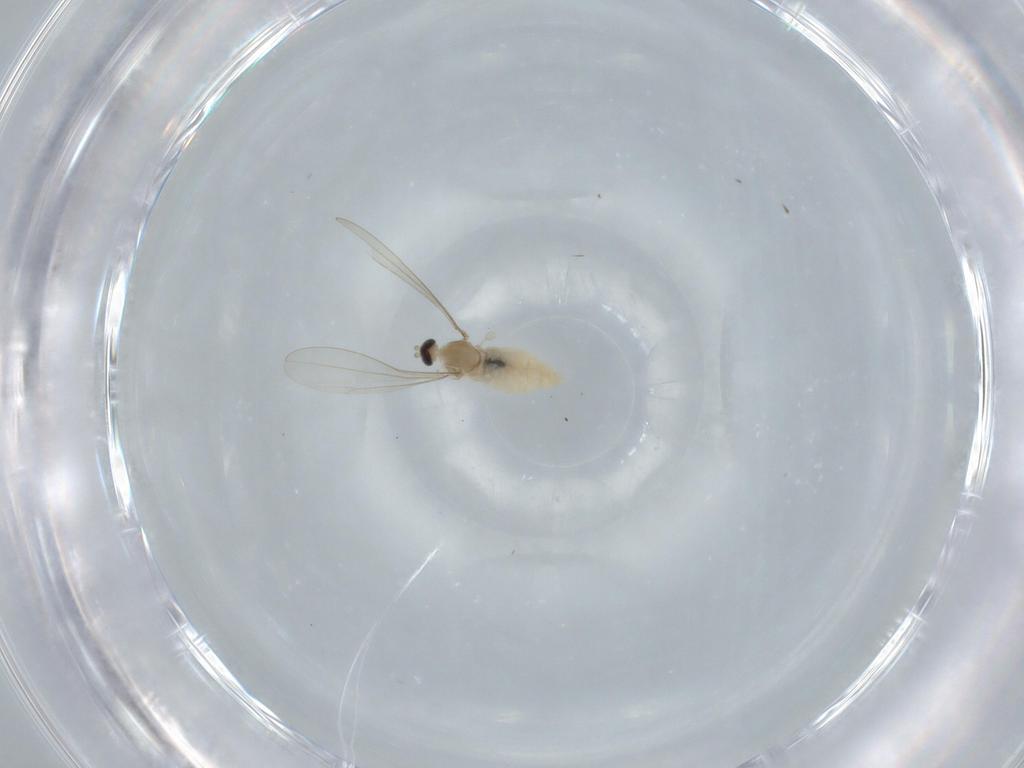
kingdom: Animalia
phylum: Arthropoda
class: Insecta
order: Diptera
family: Cecidomyiidae
